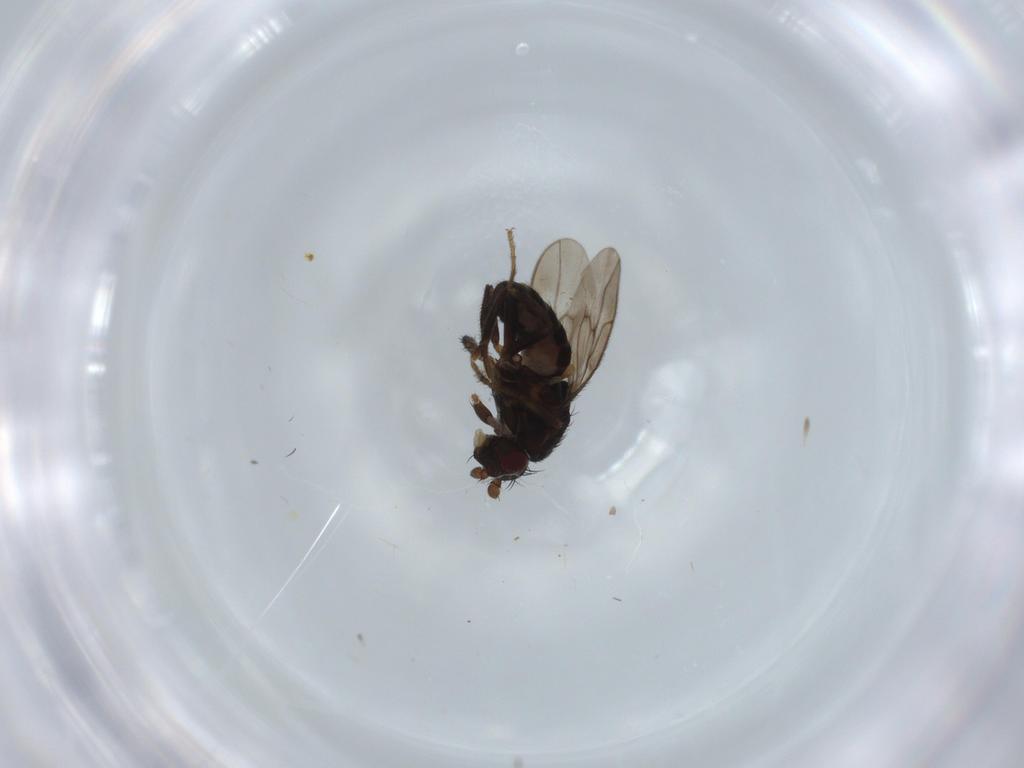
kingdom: Animalia
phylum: Arthropoda
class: Insecta
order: Diptera
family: Sphaeroceridae
